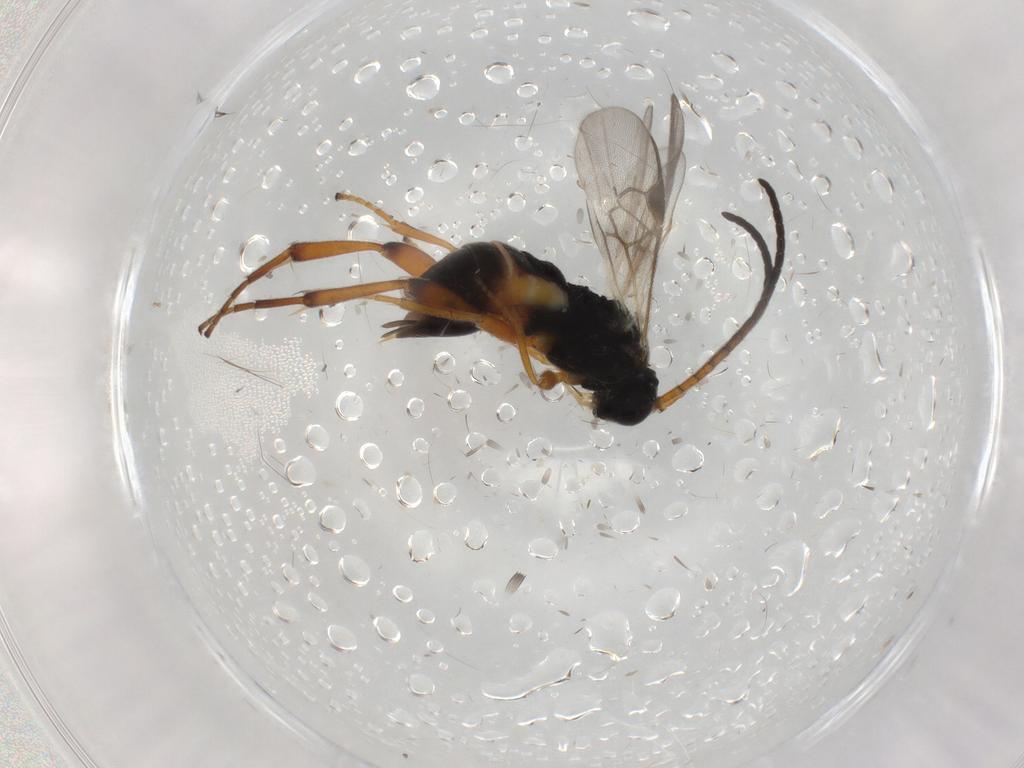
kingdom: Animalia
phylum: Arthropoda
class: Insecta
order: Hymenoptera
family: Braconidae
